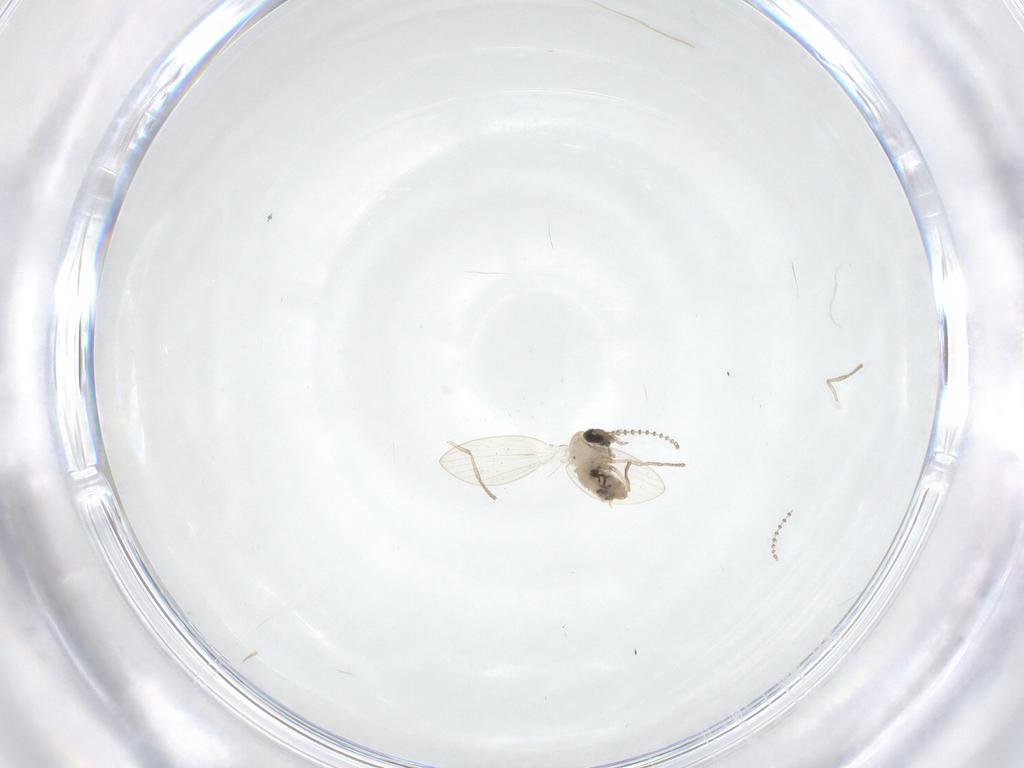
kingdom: Animalia
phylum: Arthropoda
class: Insecta
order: Diptera
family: Psychodidae
